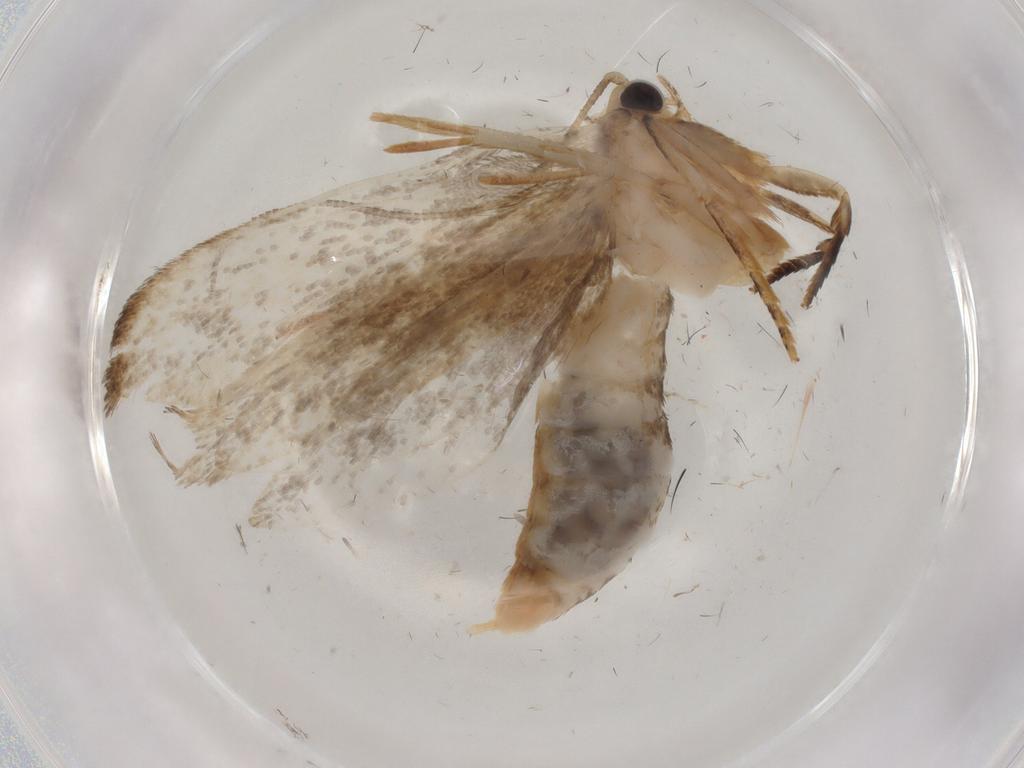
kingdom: Animalia
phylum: Arthropoda
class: Insecta
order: Lepidoptera
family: Tineidae
